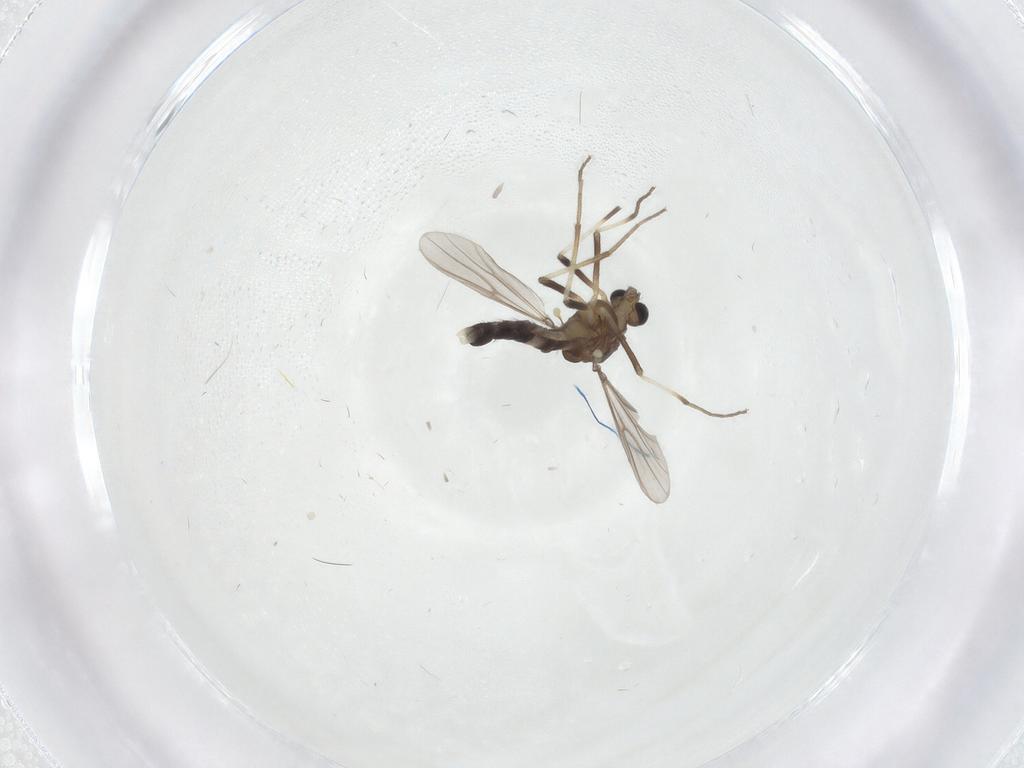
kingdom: Animalia
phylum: Arthropoda
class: Insecta
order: Diptera
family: Chironomidae
